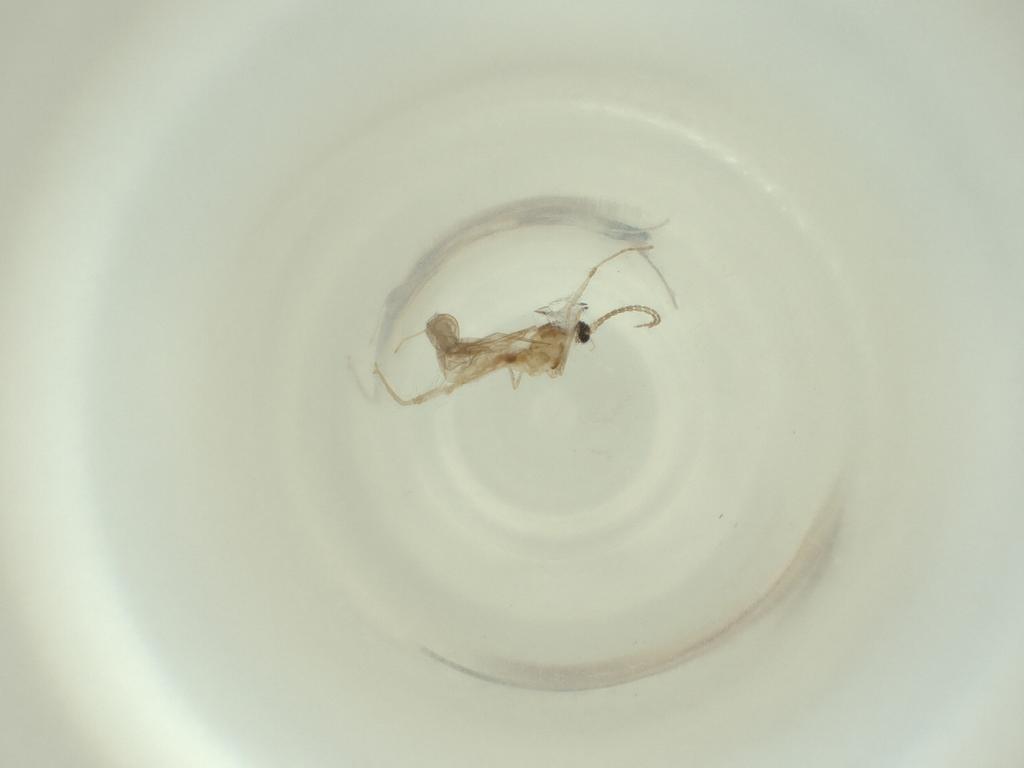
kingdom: Animalia
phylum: Arthropoda
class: Insecta
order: Diptera
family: Cecidomyiidae
